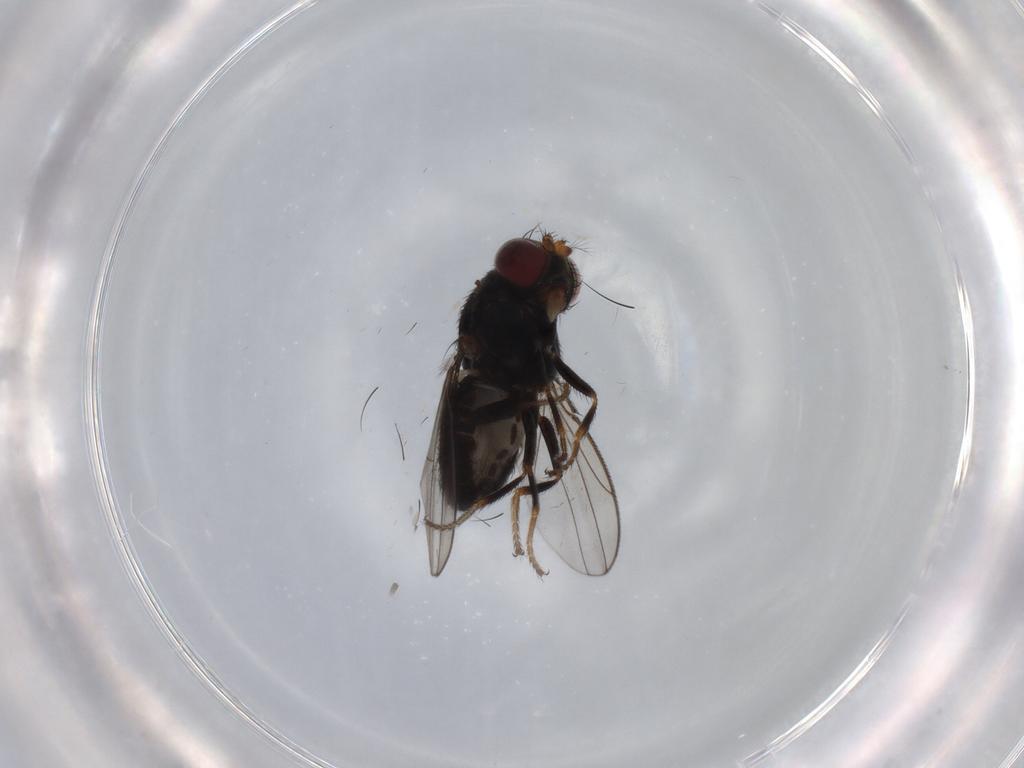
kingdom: Animalia
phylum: Arthropoda
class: Insecta
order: Diptera
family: Ephydridae
